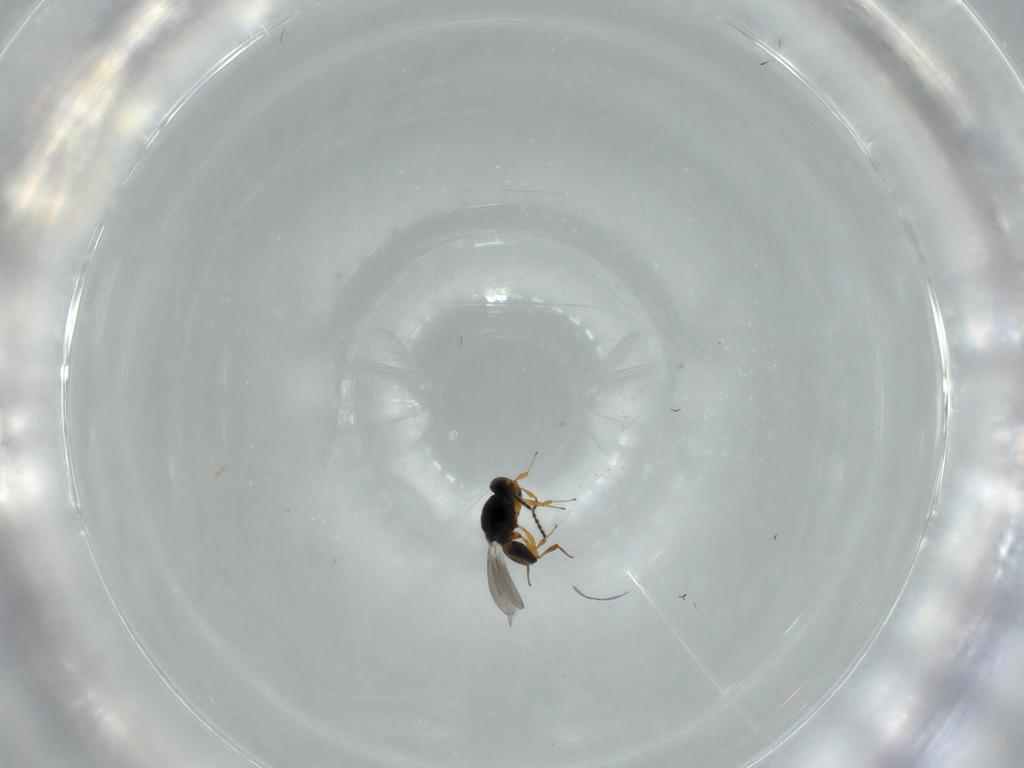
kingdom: Animalia
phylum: Arthropoda
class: Insecta
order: Hymenoptera
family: Platygastridae
